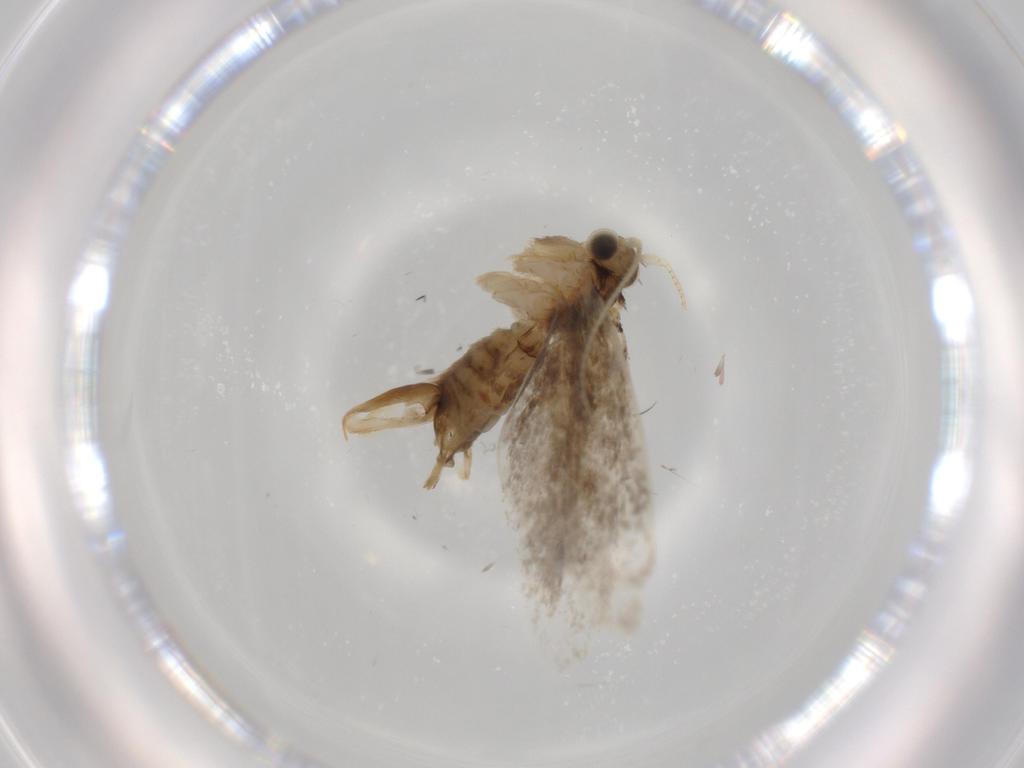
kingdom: Animalia
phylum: Arthropoda
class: Insecta
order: Lepidoptera
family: Tineidae
